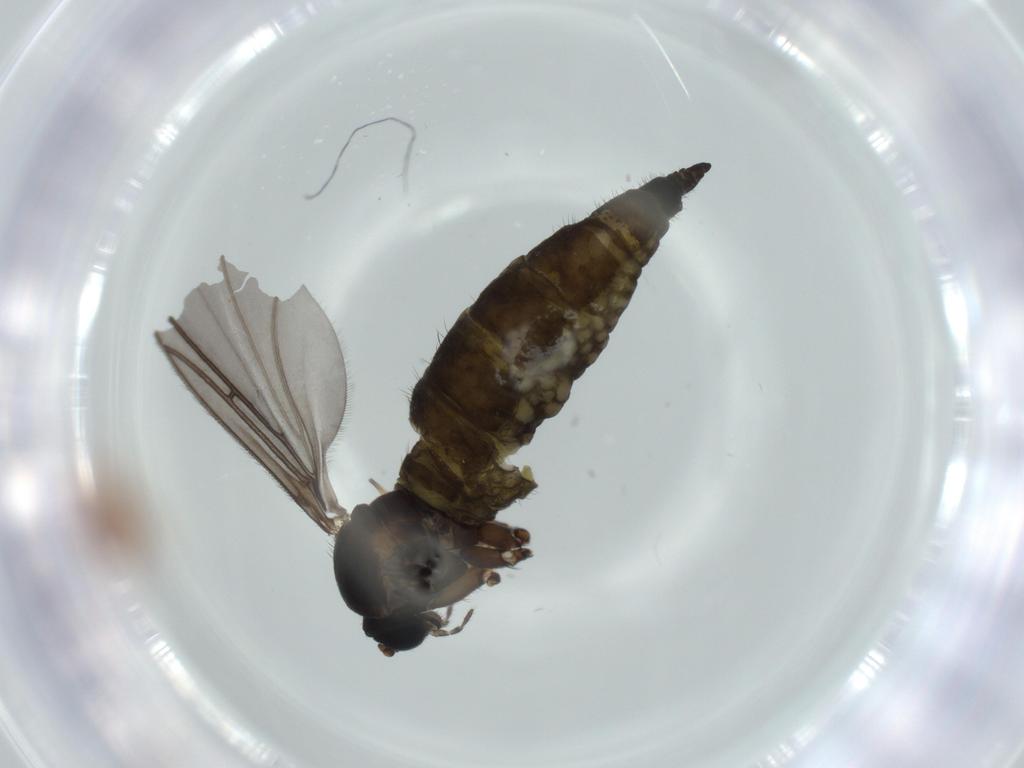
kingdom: Animalia
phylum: Arthropoda
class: Insecta
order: Diptera
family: Sciaridae
